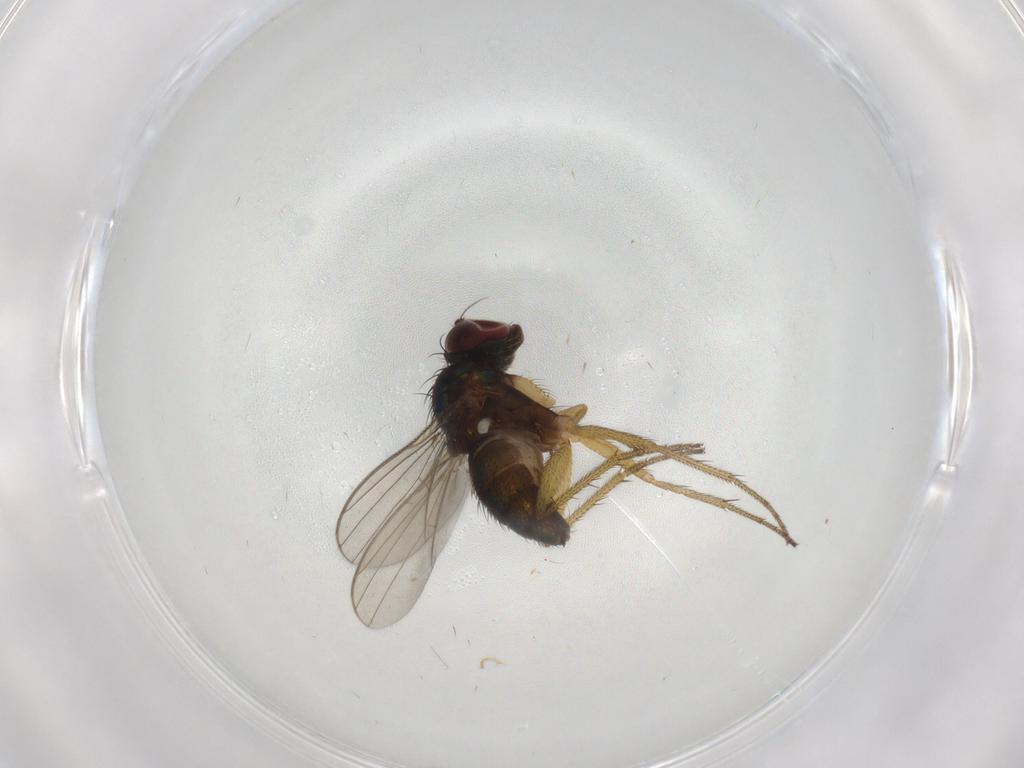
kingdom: Animalia
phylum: Arthropoda
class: Insecta
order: Diptera
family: Sciaridae
